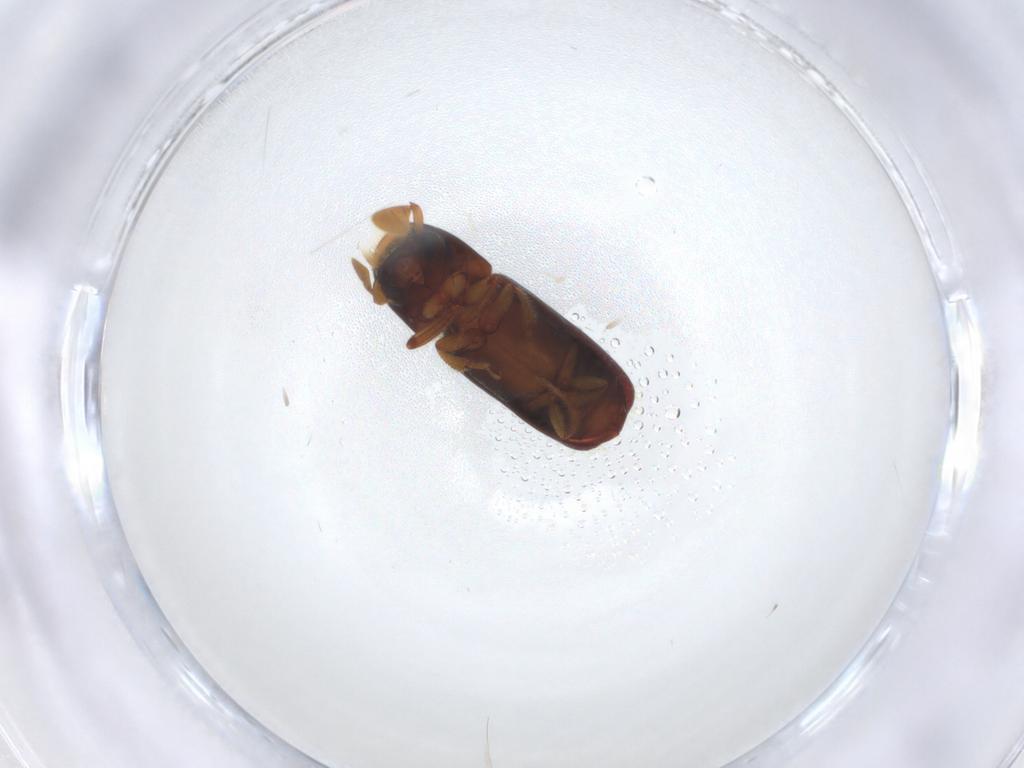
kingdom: Animalia
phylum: Arthropoda
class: Insecta
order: Coleoptera
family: Curculionidae
